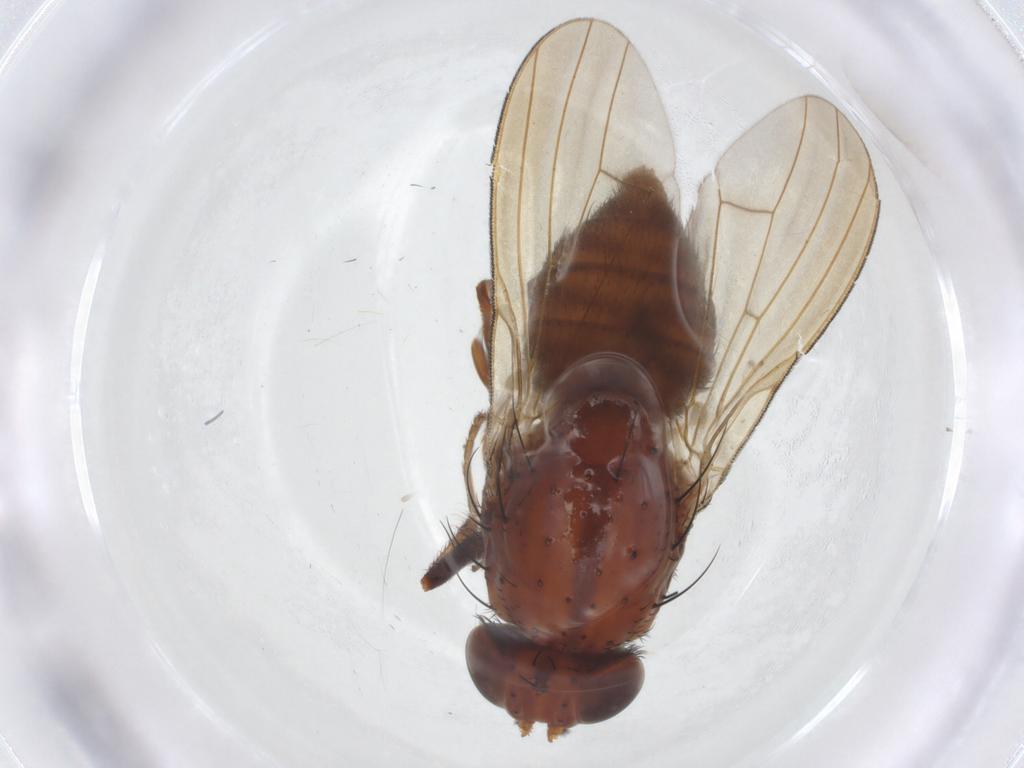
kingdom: Animalia
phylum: Arthropoda
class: Insecta
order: Diptera
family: Ceratopogonidae
